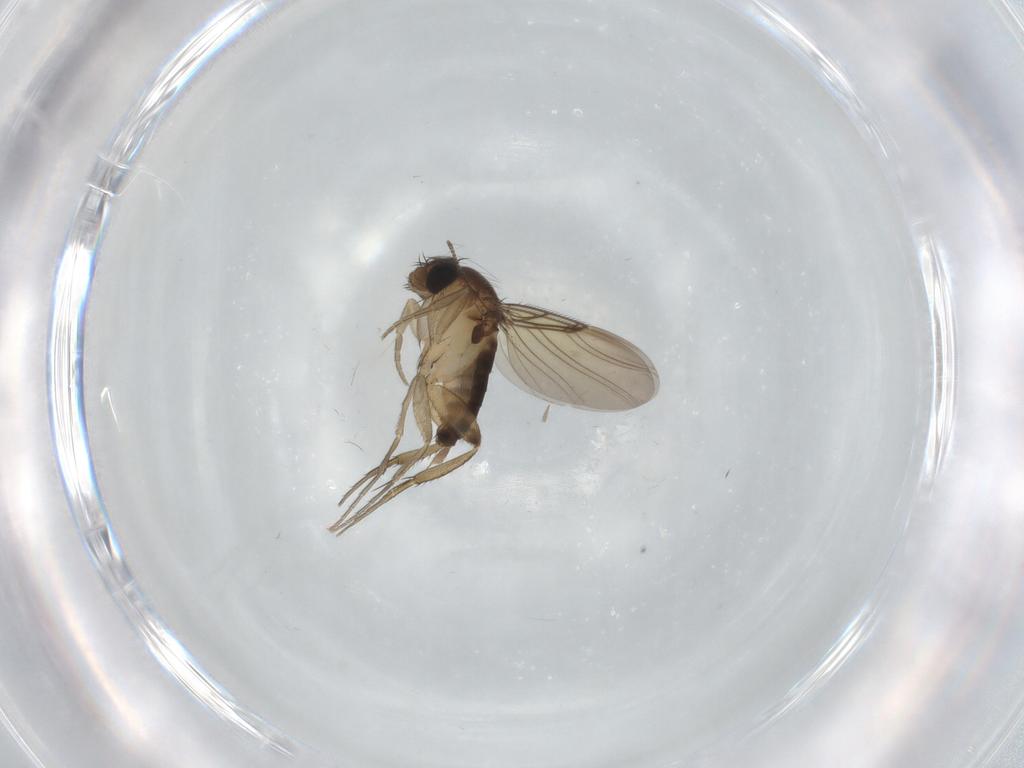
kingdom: Animalia
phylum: Arthropoda
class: Insecta
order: Diptera
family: Phoridae
